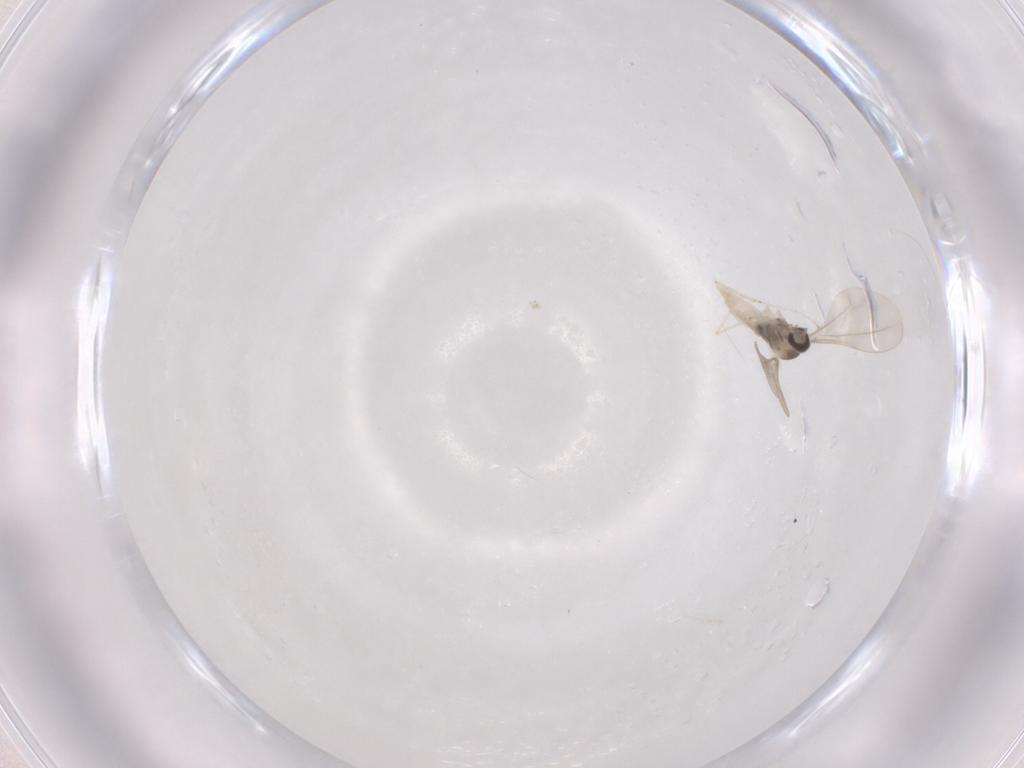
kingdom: Animalia
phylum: Arthropoda
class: Insecta
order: Diptera
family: Cecidomyiidae
